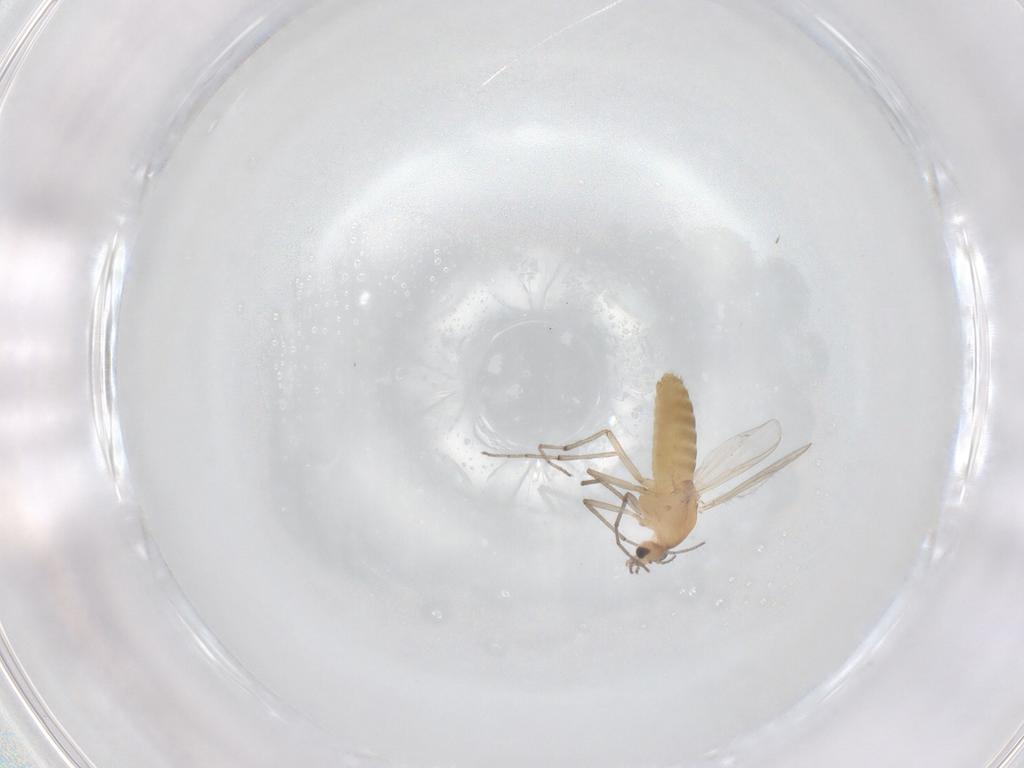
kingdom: Animalia
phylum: Arthropoda
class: Insecta
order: Diptera
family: Chironomidae
